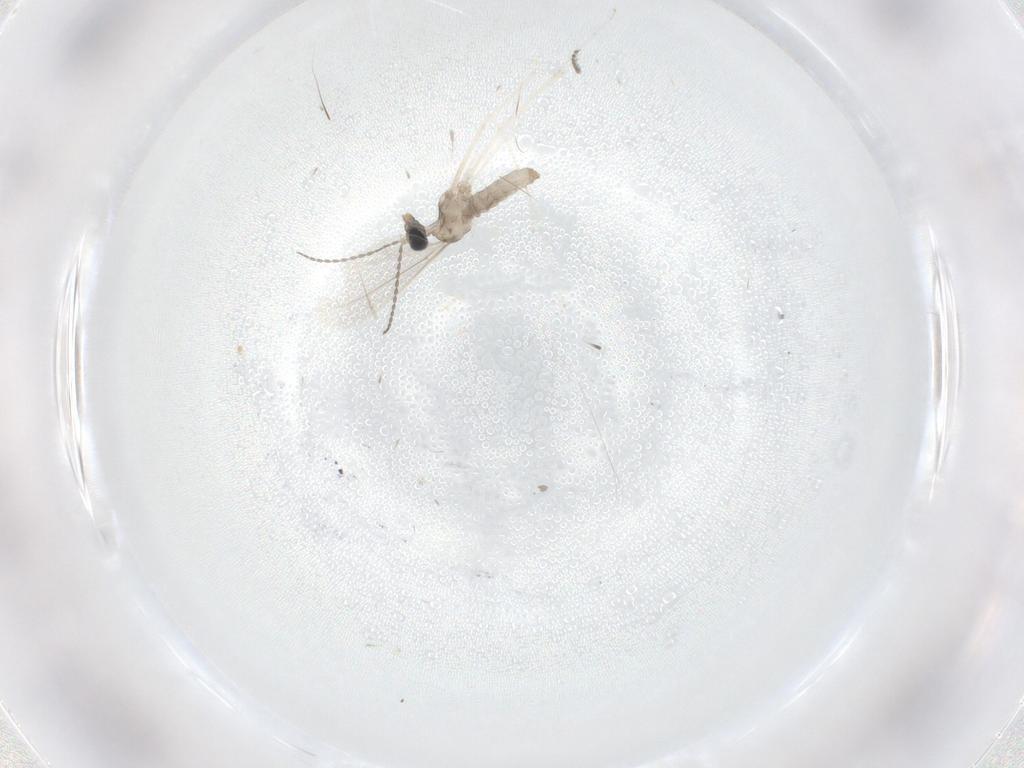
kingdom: Animalia
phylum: Arthropoda
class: Insecta
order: Diptera
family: Cecidomyiidae
